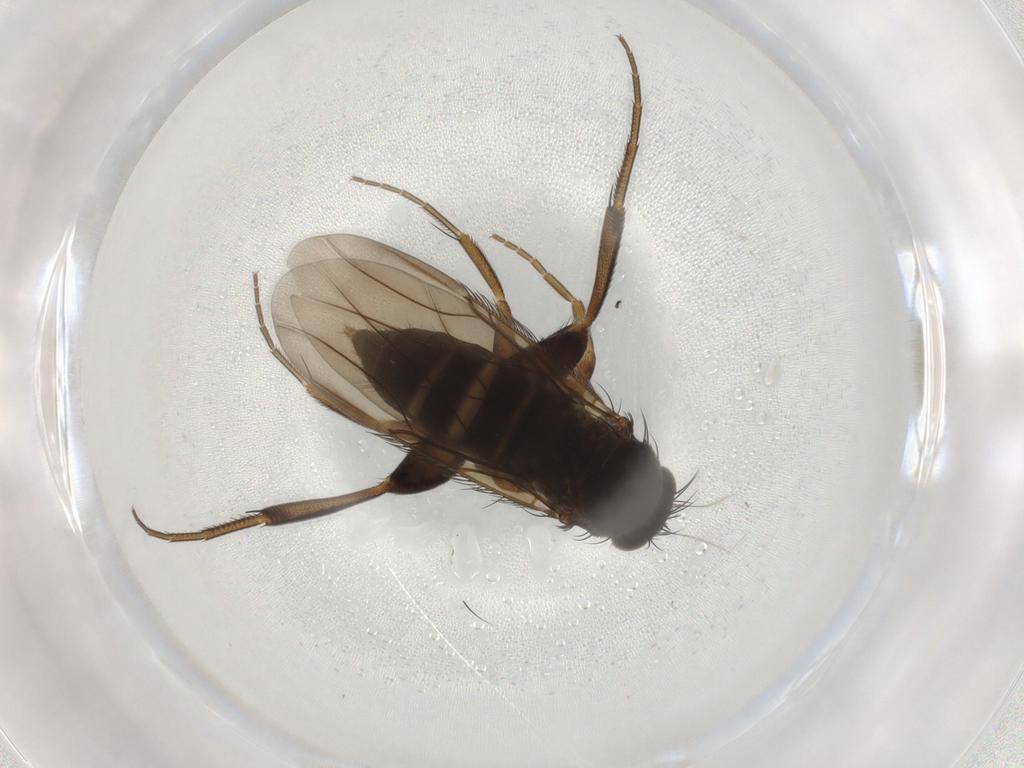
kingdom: Animalia
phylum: Arthropoda
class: Insecta
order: Diptera
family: Phoridae
